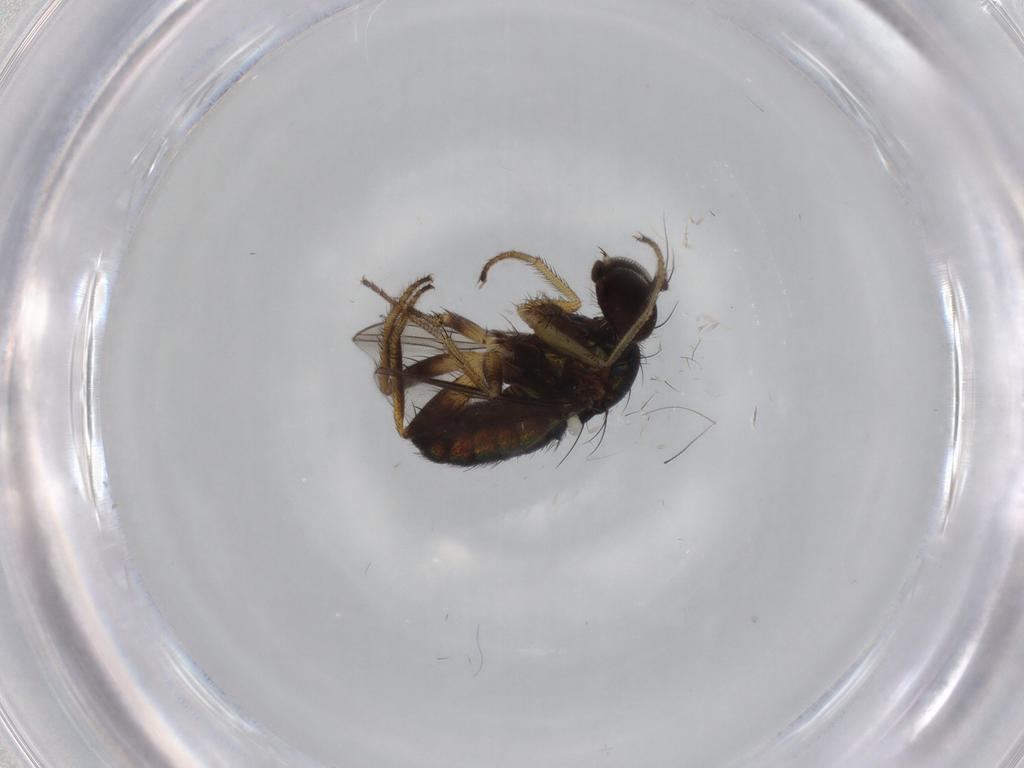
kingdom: Animalia
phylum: Arthropoda
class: Insecta
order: Diptera
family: Dolichopodidae
